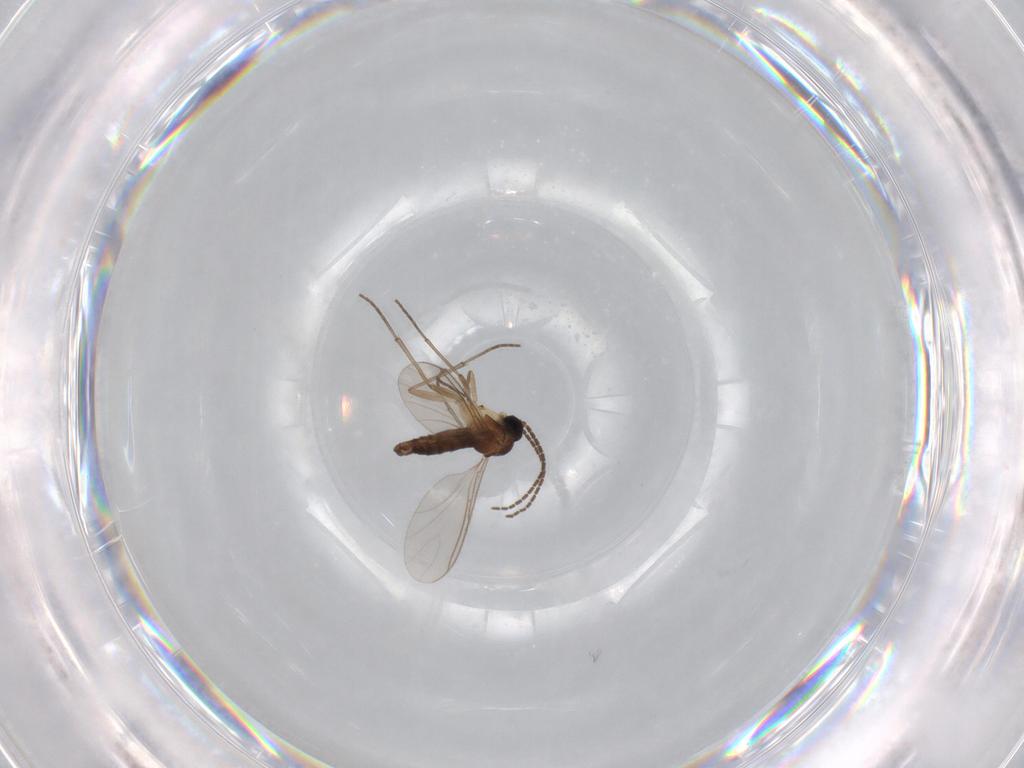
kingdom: Animalia
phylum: Arthropoda
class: Insecta
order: Diptera
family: Sciaridae
